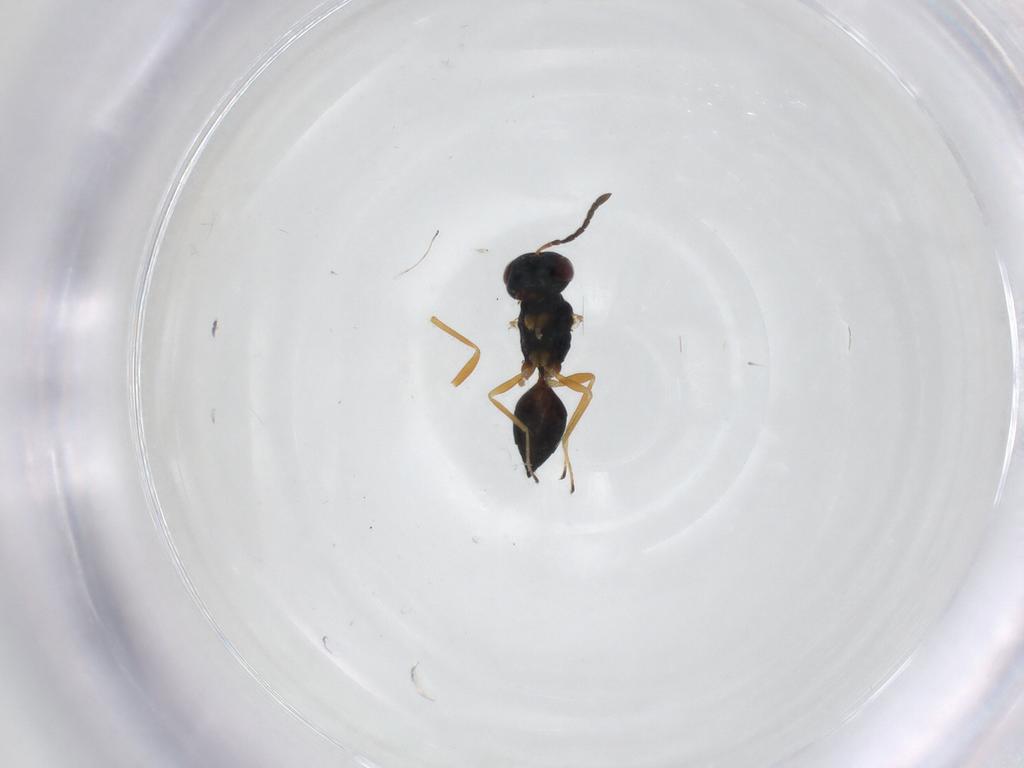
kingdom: Animalia
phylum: Arthropoda
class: Insecta
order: Hymenoptera
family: Pteromalidae
